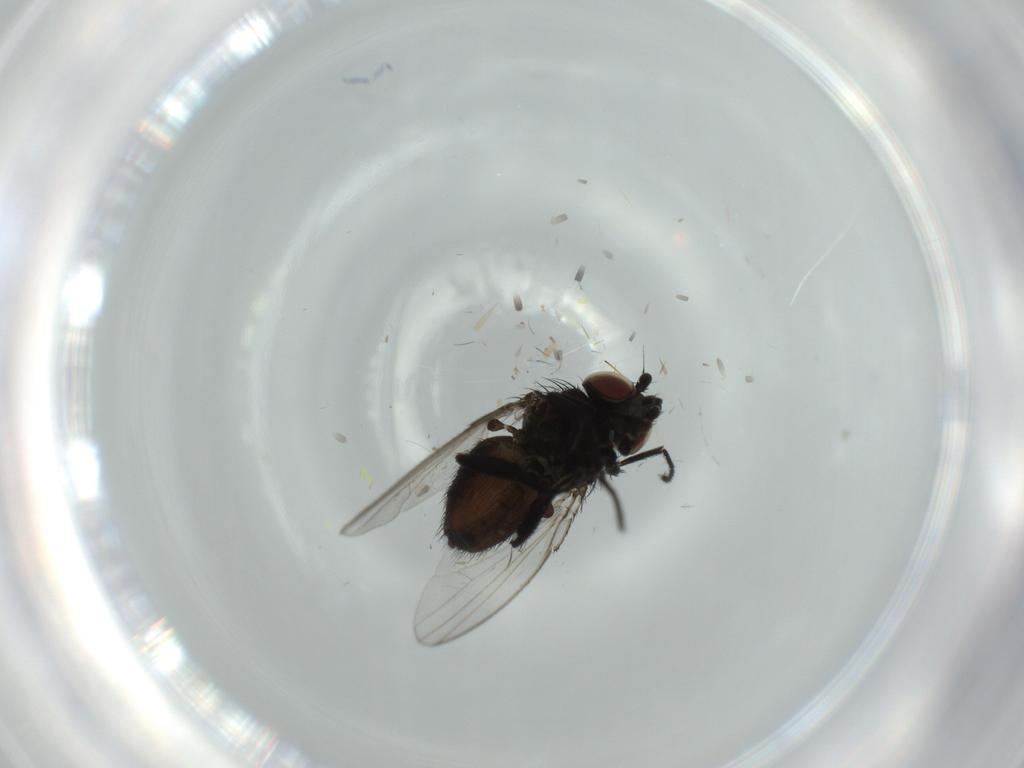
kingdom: Animalia
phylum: Arthropoda
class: Insecta
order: Diptera
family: Milichiidae
